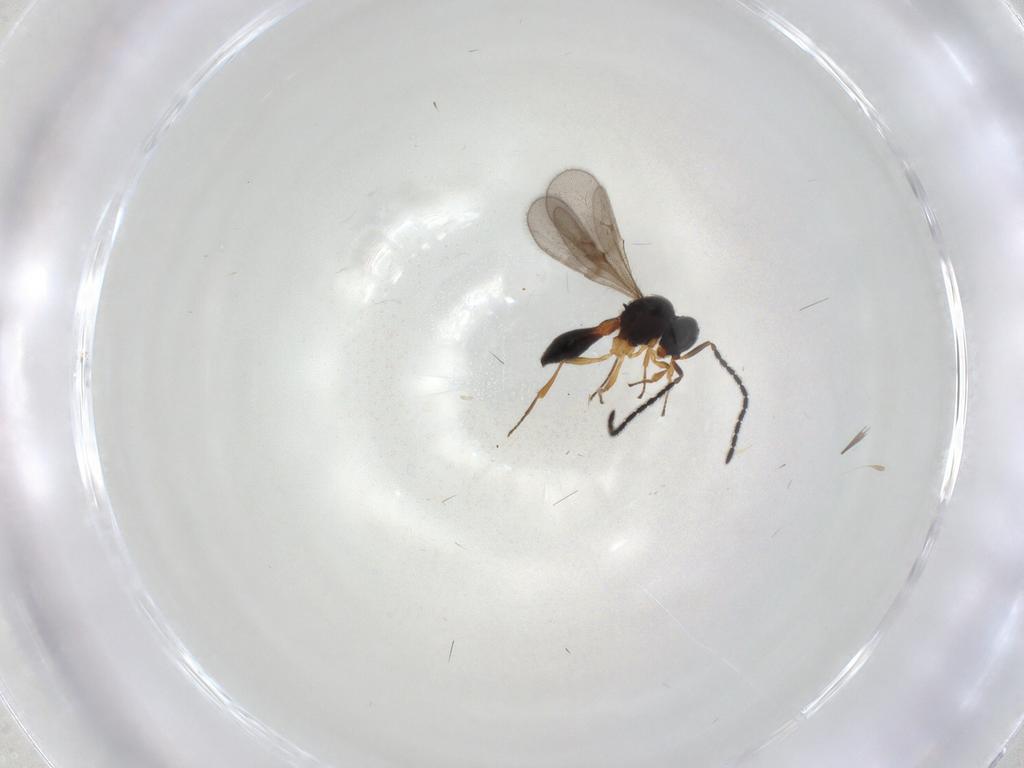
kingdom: Animalia
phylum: Arthropoda
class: Insecta
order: Hymenoptera
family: Scelionidae
